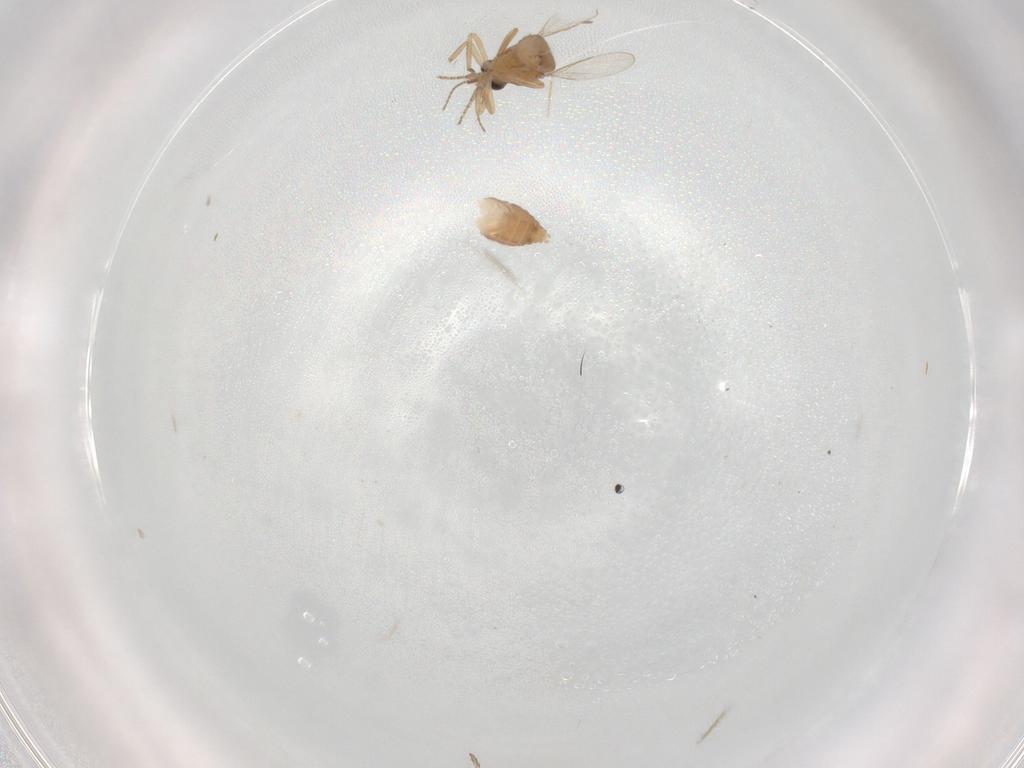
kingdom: Animalia
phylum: Arthropoda
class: Insecta
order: Diptera
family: Ceratopogonidae
